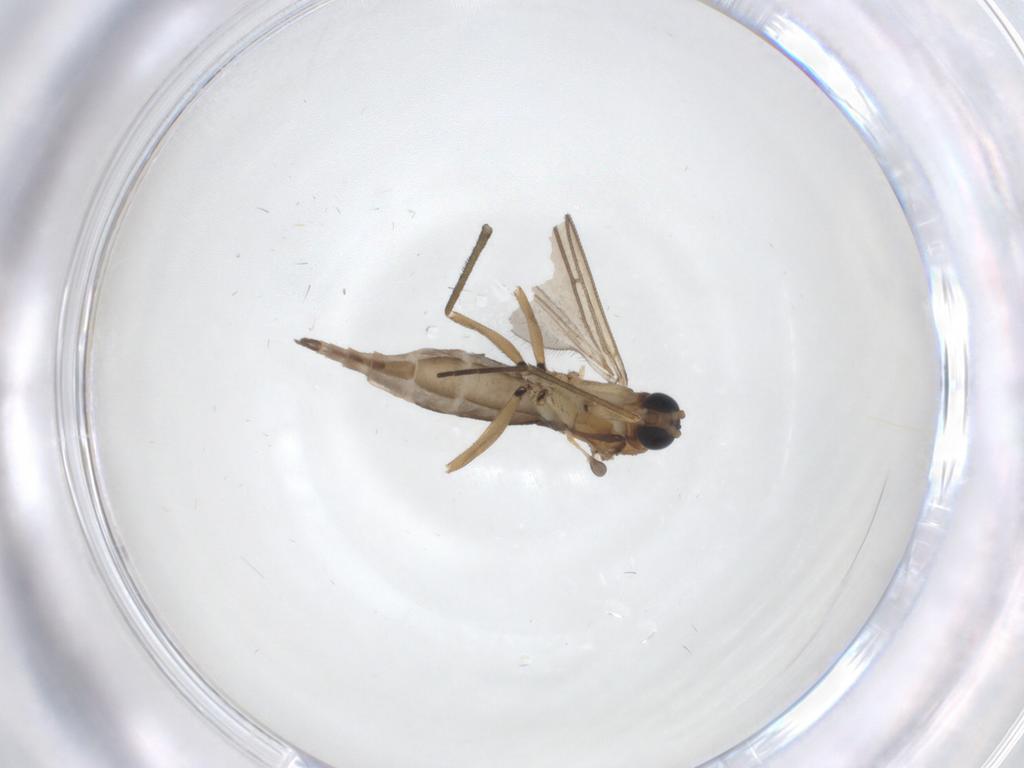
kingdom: Animalia
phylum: Arthropoda
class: Insecta
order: Diptera
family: Sciaridae
